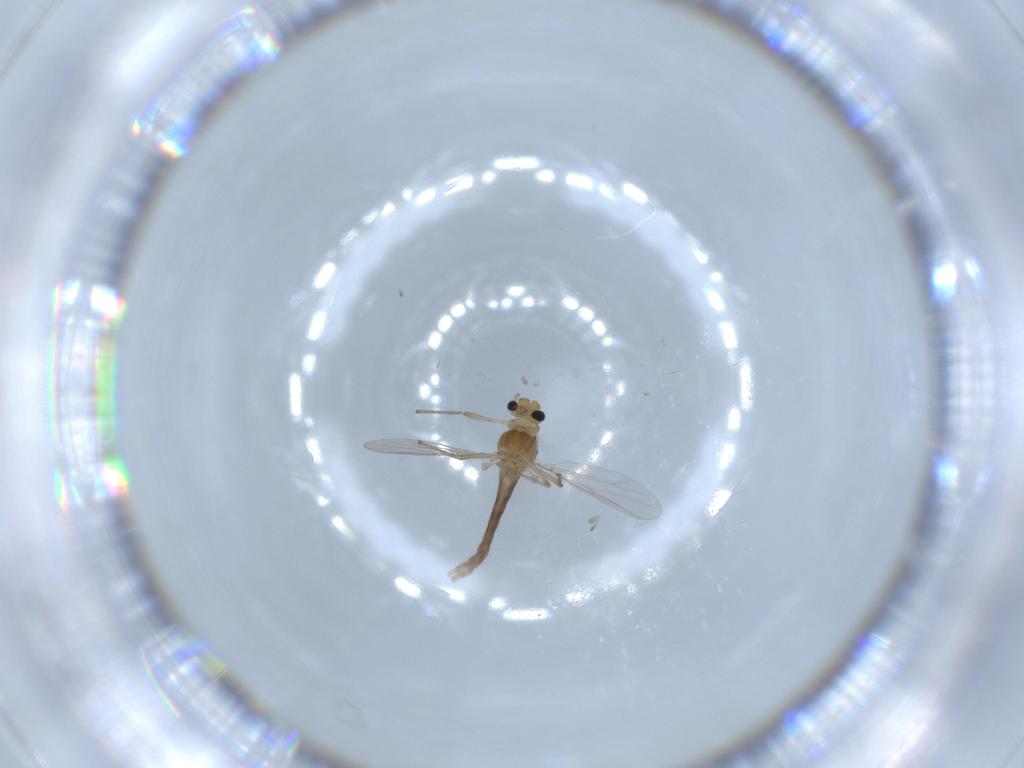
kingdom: Animalia
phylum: Arthropoda
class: Insecta
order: Diptera
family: Chironomidae
